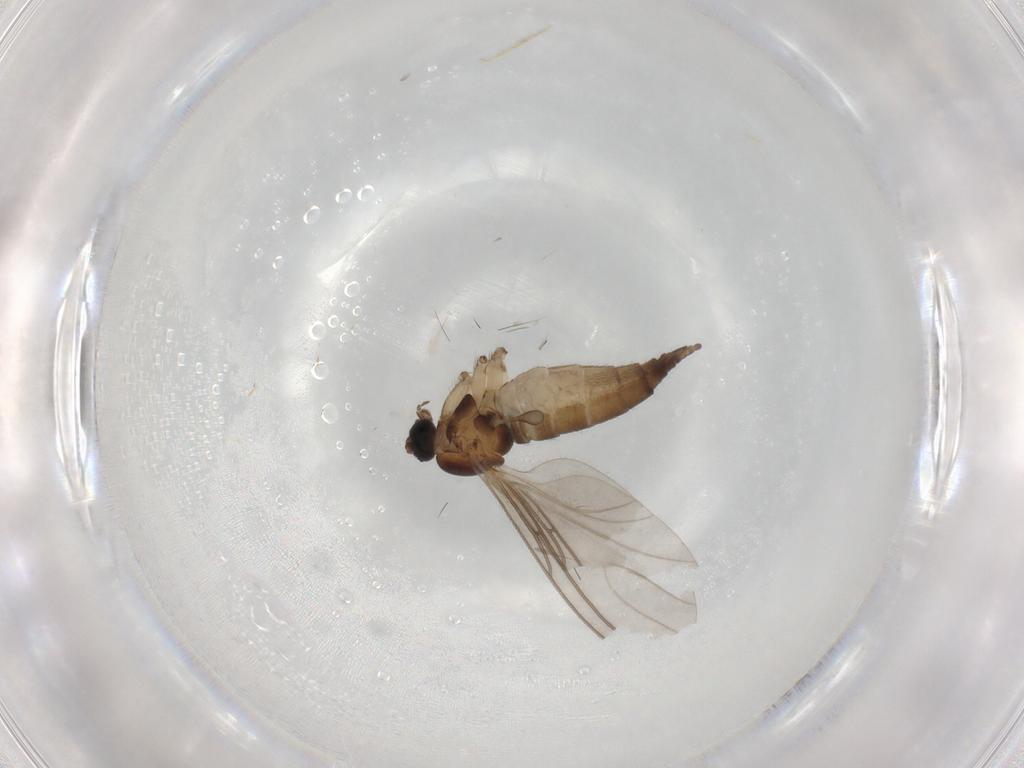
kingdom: Animalia
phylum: Arthropoda
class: Insecta
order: Diptera
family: Sciaridae
